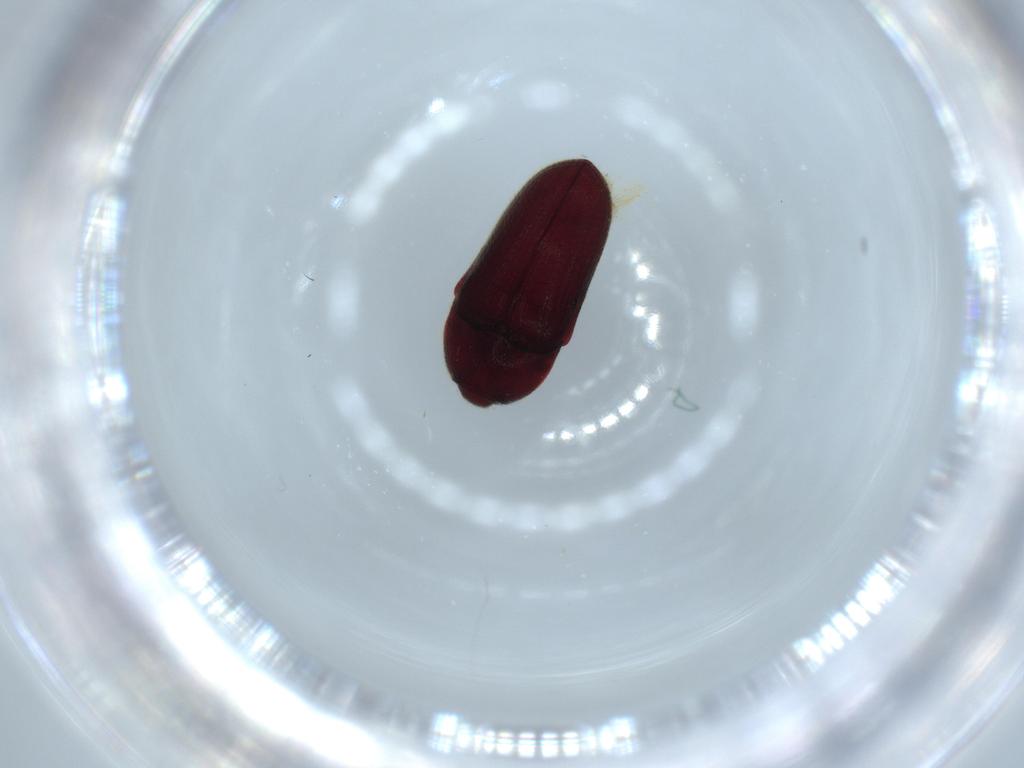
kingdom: Animalia
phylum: Arthropoda
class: Insecta
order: Coleoptera
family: Throscidae
